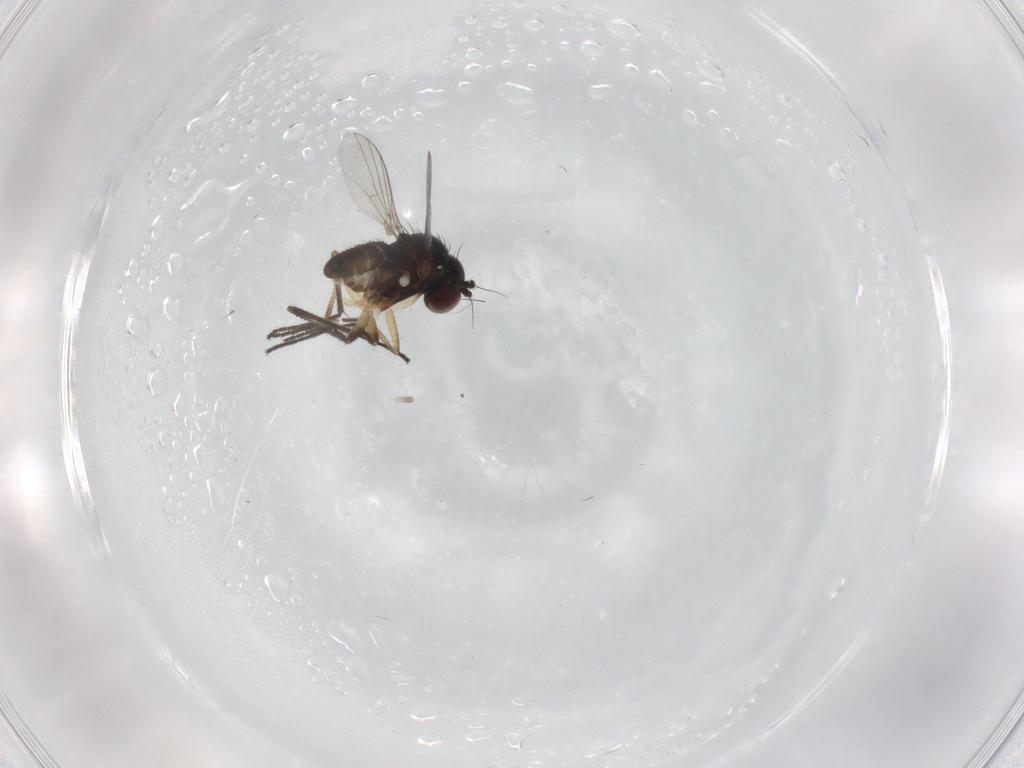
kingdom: Animalia
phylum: Arthropoda
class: Insecta
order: Diptera
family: Dolichopodidae
